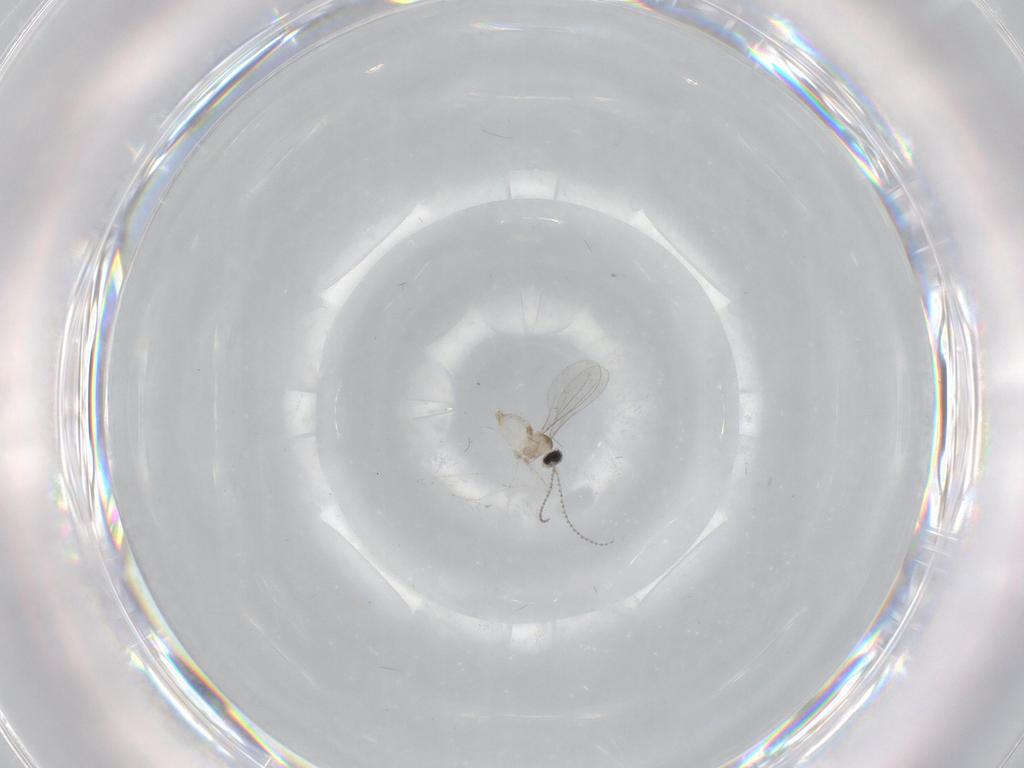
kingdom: Animalia
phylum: Arthropoda
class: Insecta
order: Diptera
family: Cecidomyiidae
